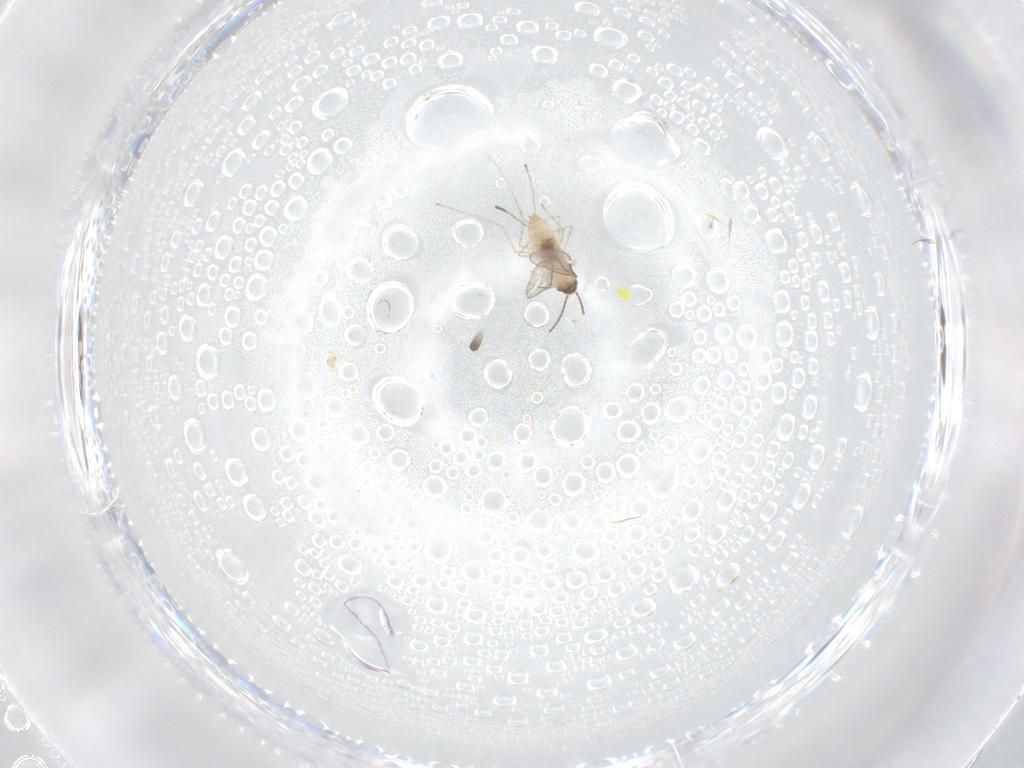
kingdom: Animalia
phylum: Arthropoda
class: Insecta
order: Diptera
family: Cecidomyiidae
